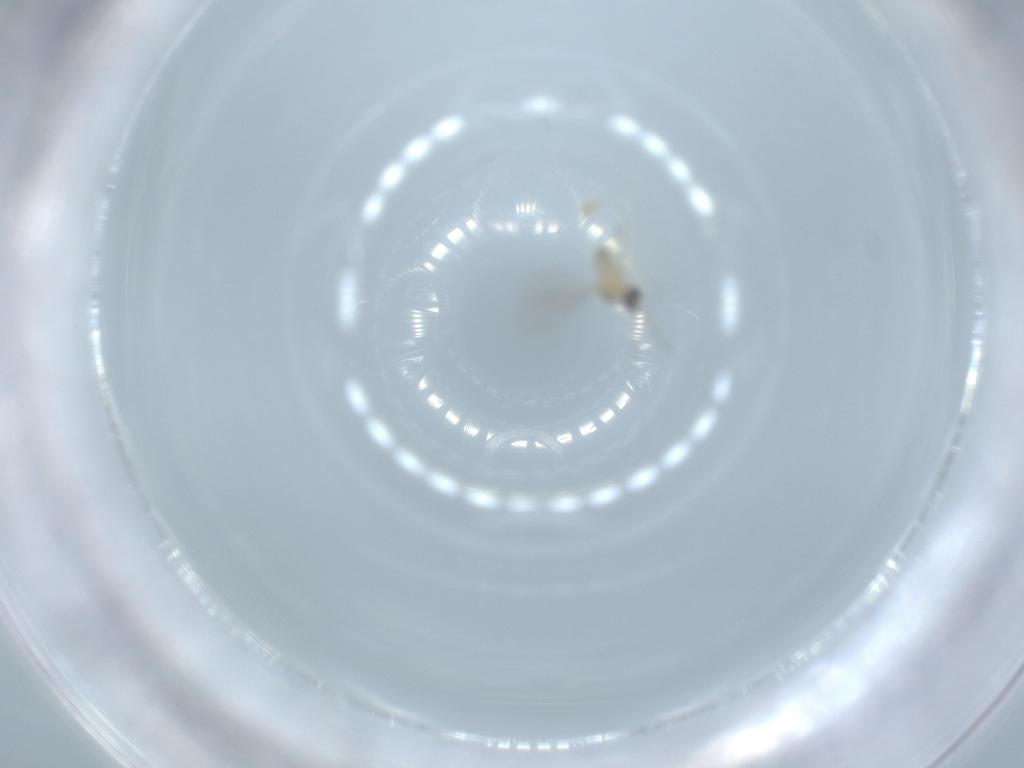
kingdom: Animalia
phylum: Arthropoda
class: Insecta
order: Diptera
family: Cecidomyiidae
